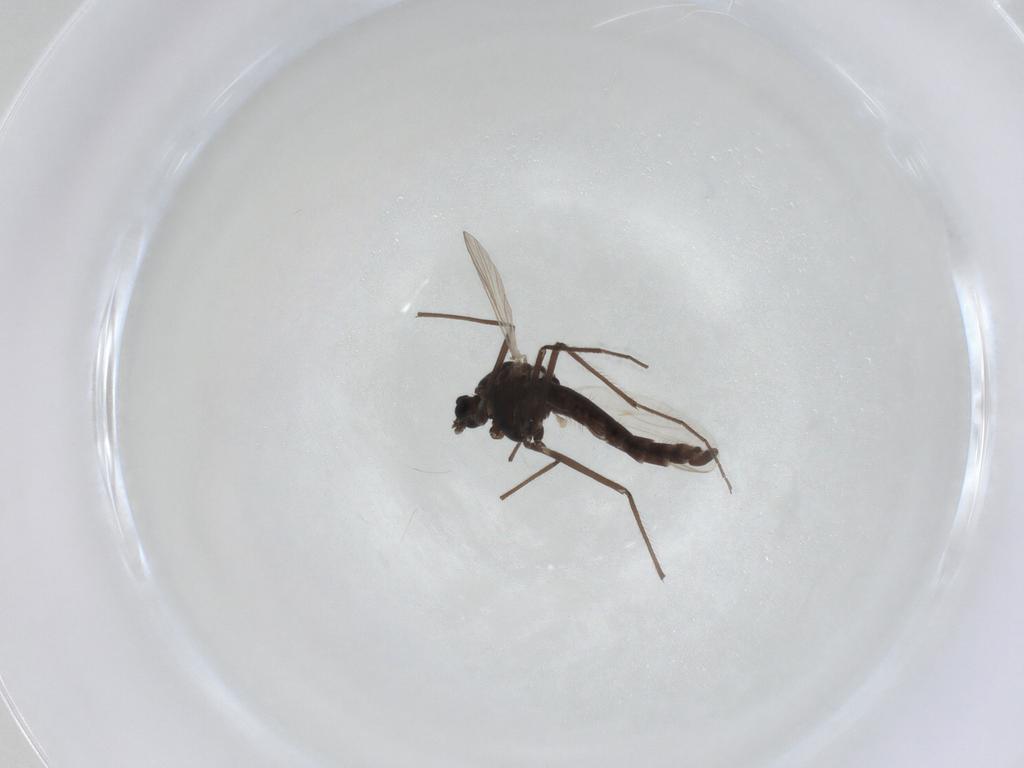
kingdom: Animalia
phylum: Arthropoda
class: Insecta
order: Diptera
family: Chironomidae
